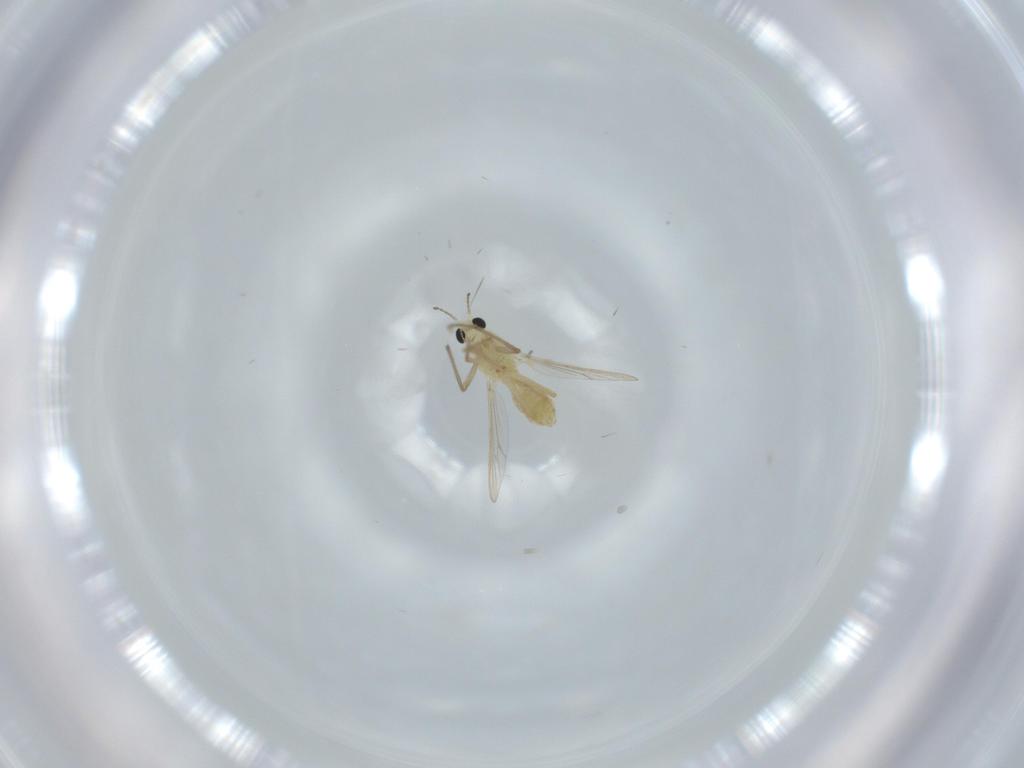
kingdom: Animalia
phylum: Arthropoda
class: Insecta
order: Diptera
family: Chironomidae
